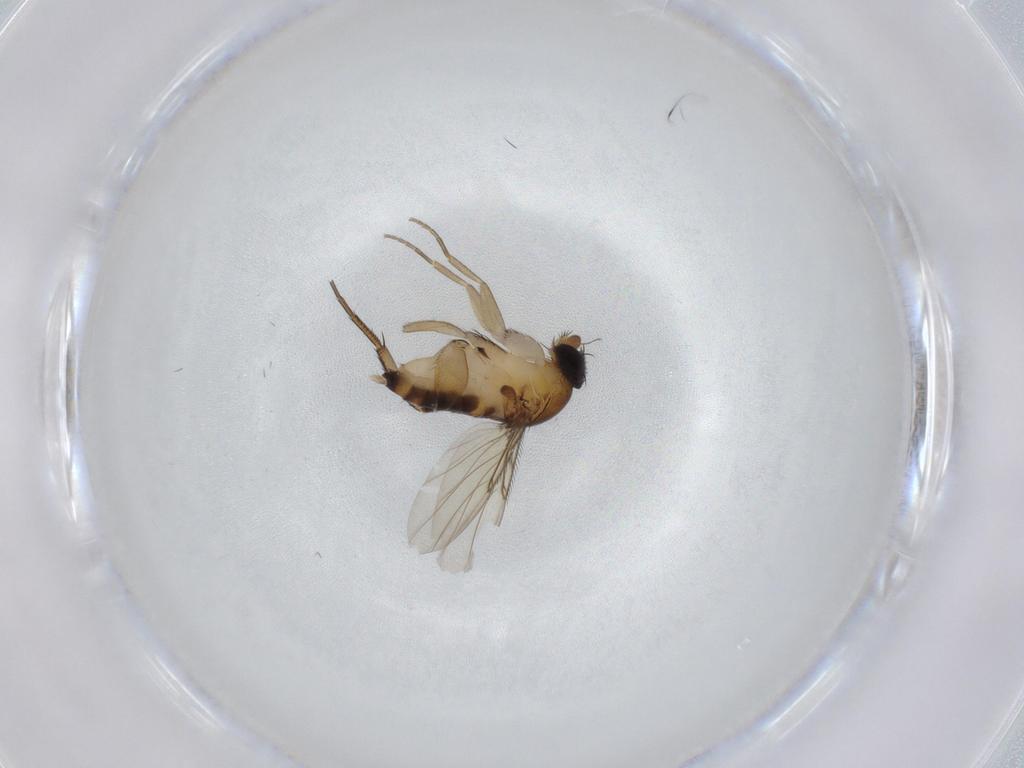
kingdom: Animalia
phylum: Arthropoda
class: Insecta
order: Diptera
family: Phoridae
